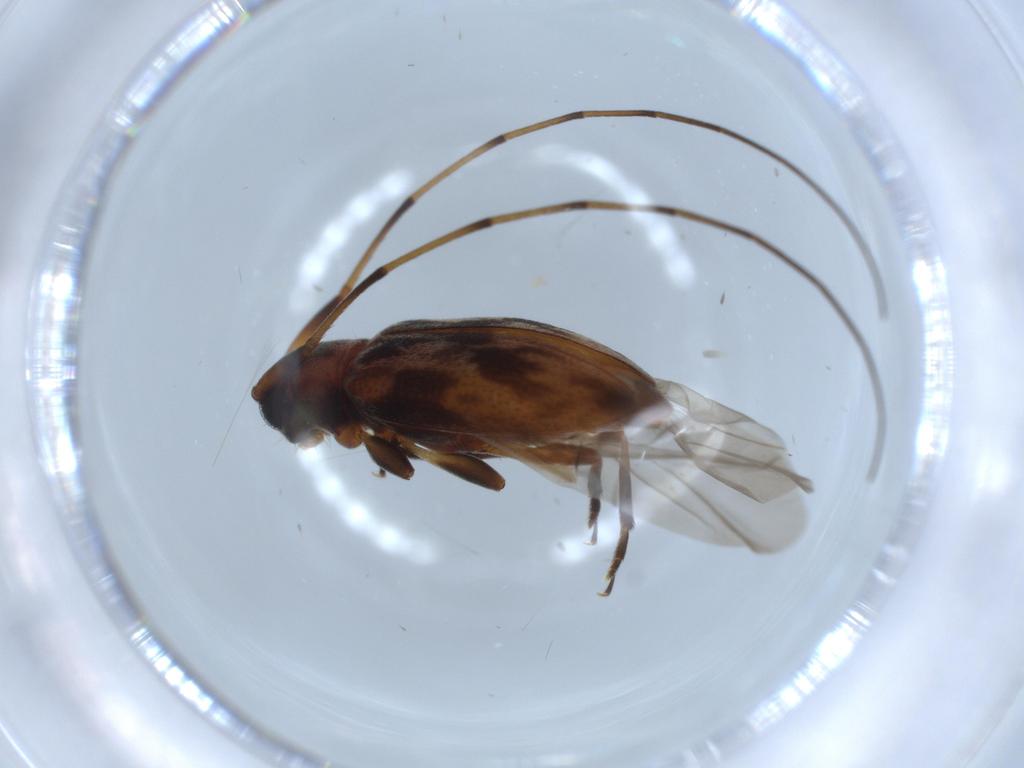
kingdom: Animalia
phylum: Arthropoda
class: Insecta
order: Coleoptera
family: Cerambycidae
